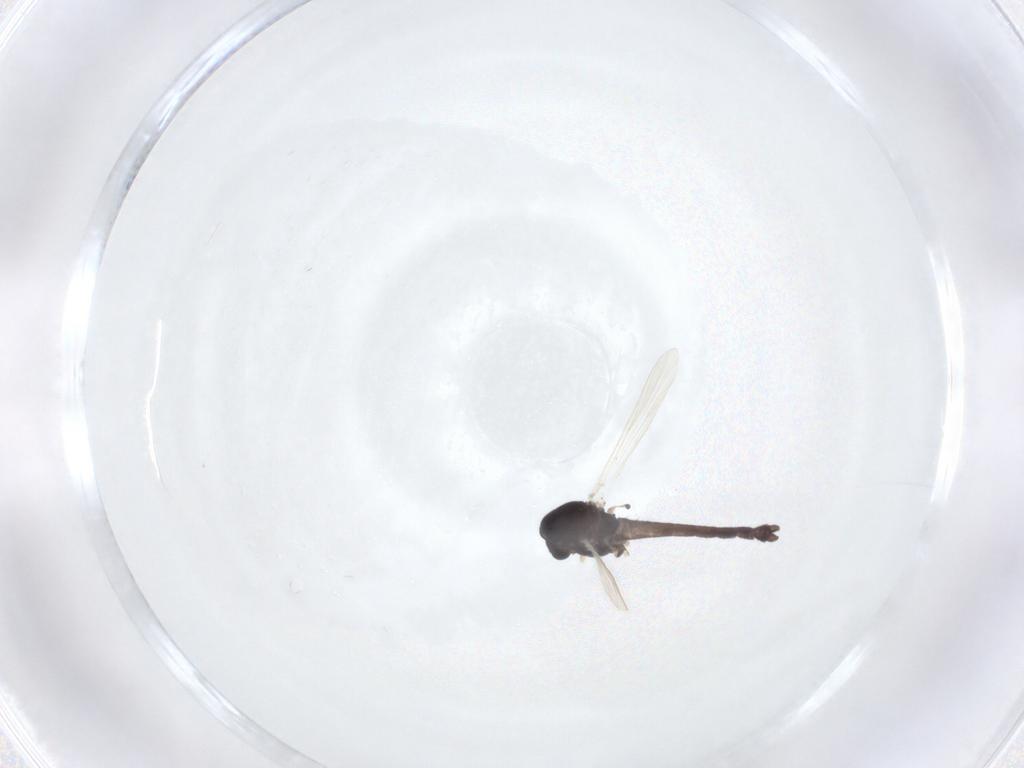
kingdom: Animalia
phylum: Arthropoda
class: Insecta
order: Diptera
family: Chironomidae
